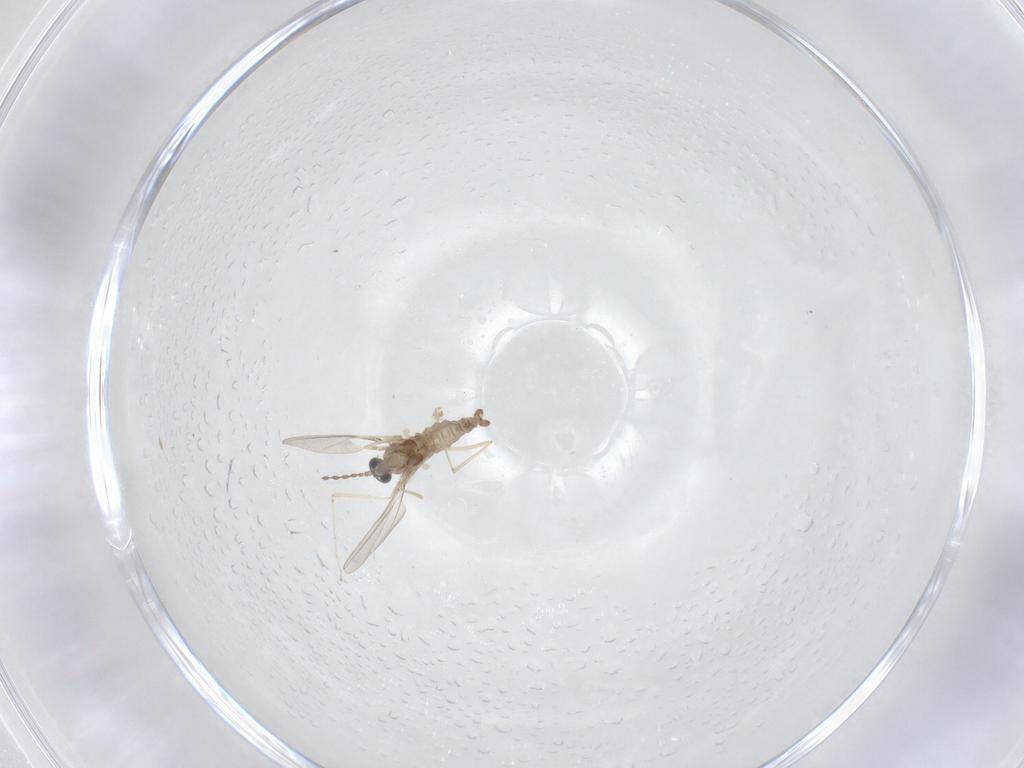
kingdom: Animalia
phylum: Arthropoda
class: Insecta
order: Diptera
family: Cecidomyiidae
